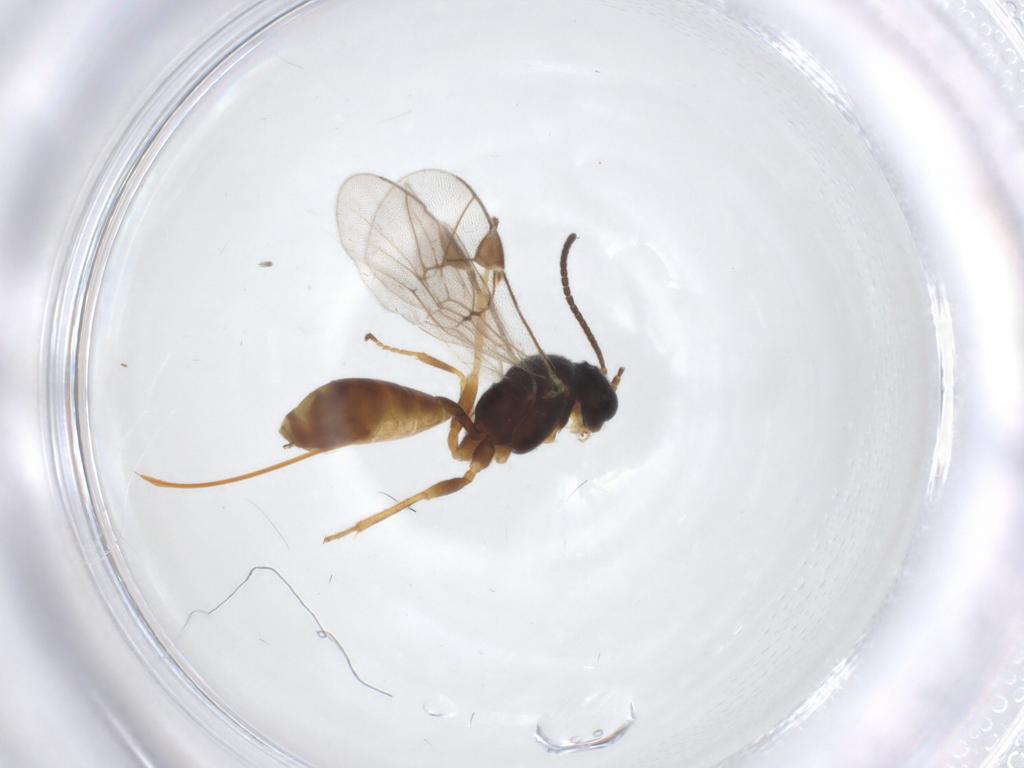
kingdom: Animalia
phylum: Arthropoda
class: Insecta
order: Hymenoptera
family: Ichneumonidae
